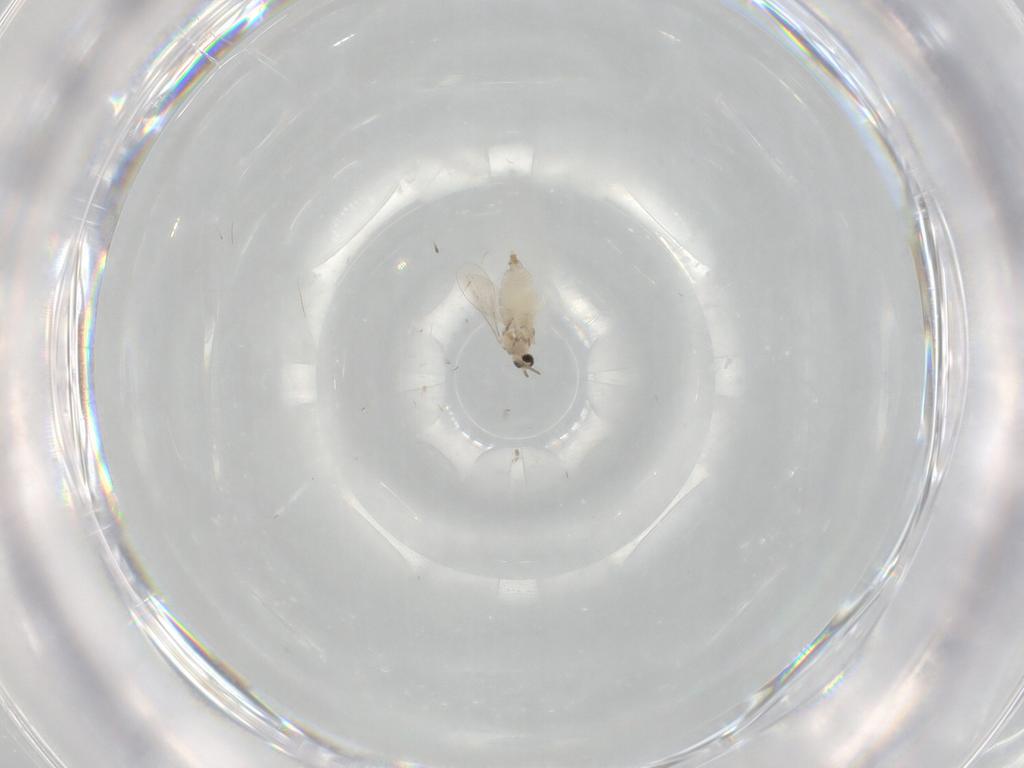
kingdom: Animalia
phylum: Arthropoda
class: Insecta
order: Diptera
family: Cecidomyiidae
